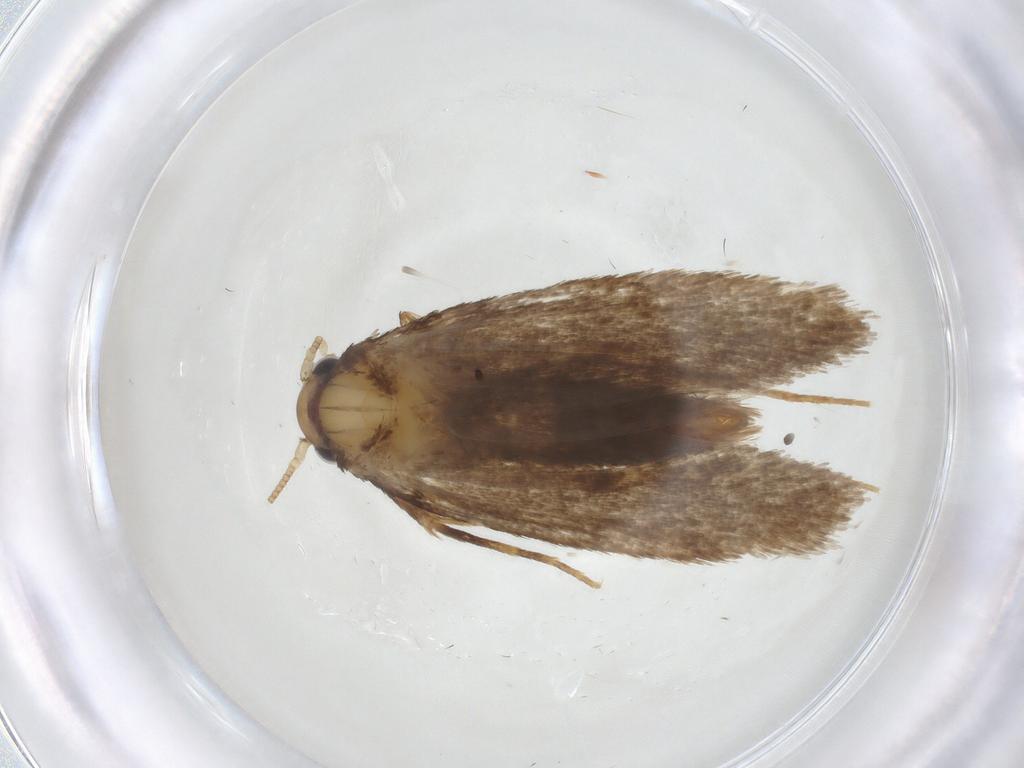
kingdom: Animalia
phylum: Arthropoda
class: Insecta
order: Lepidoptera
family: Tineidae
